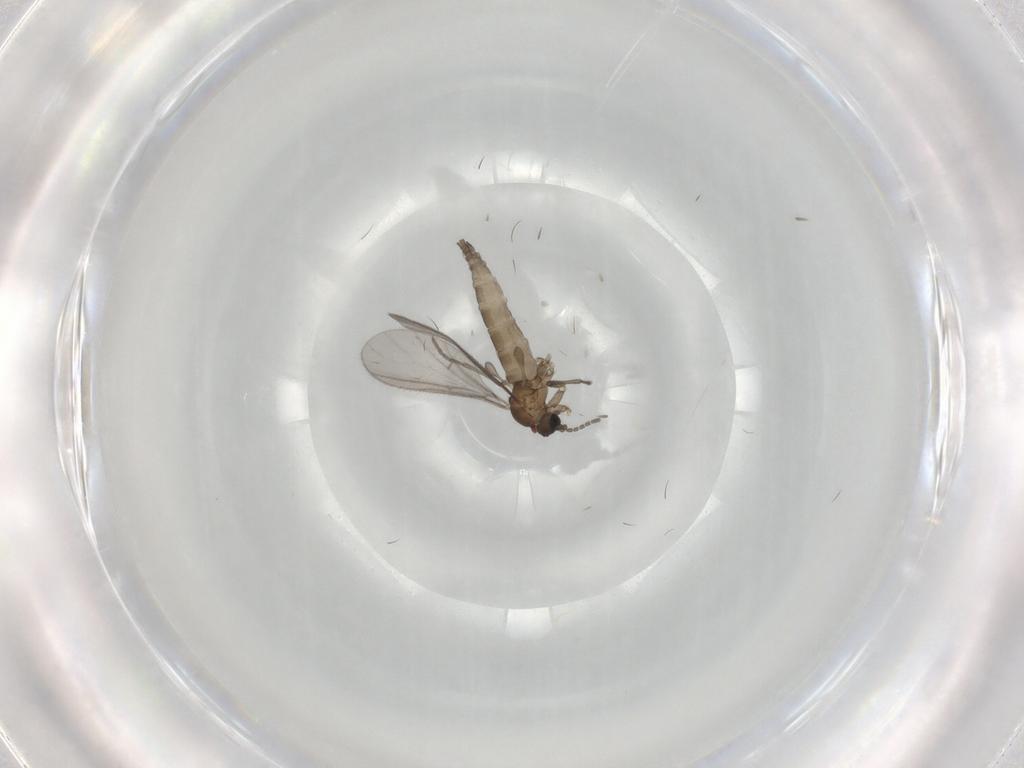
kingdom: Animalia
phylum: Arthropoda
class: Insecta
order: Diptera
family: Sciaridae
